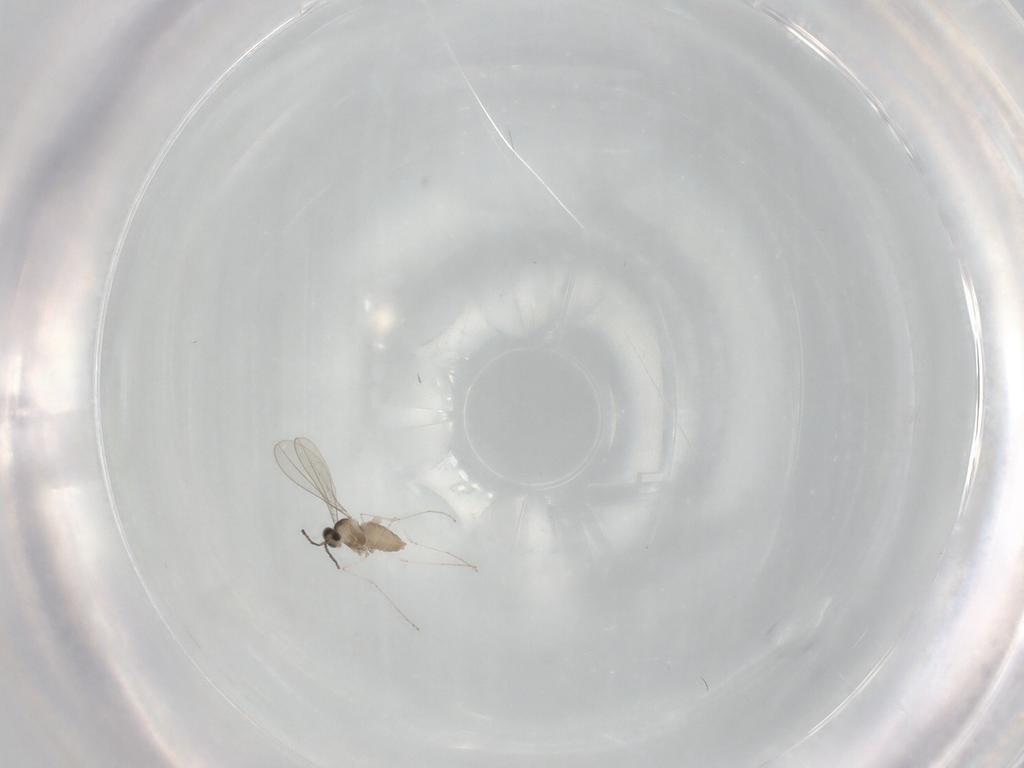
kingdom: Animalia
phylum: Arthropoda
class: Insecta
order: Diptera
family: Cecidomyiidae
